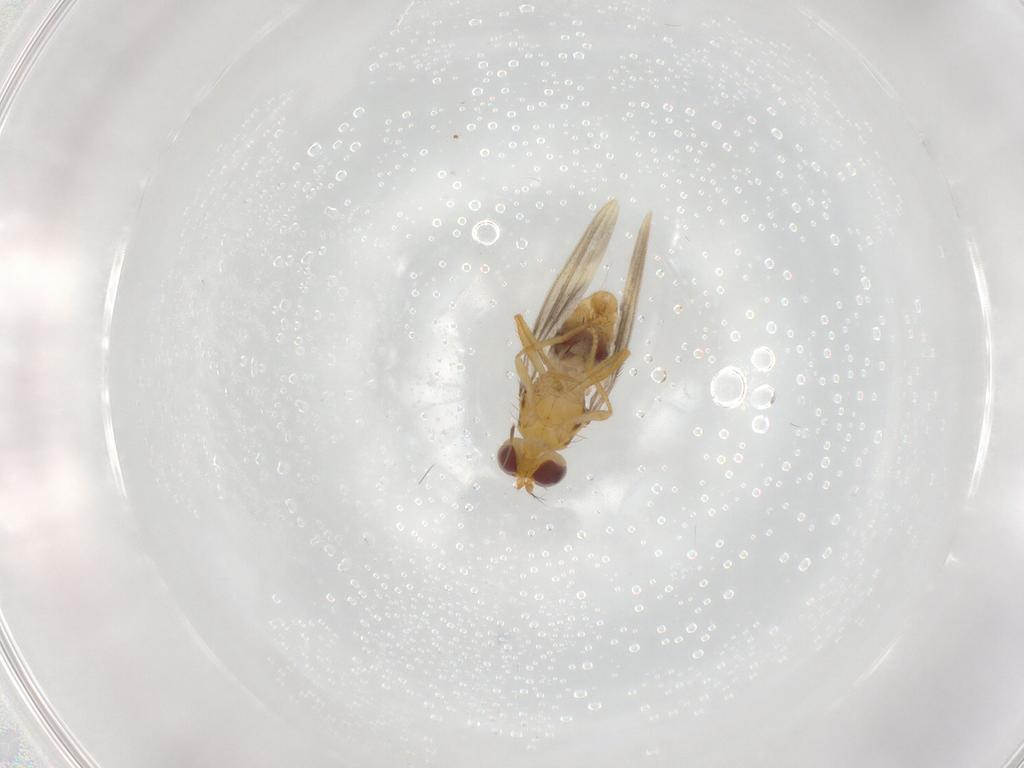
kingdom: Animalia
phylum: Arthropoda
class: Insecta
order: Diptera
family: Periscelididae
